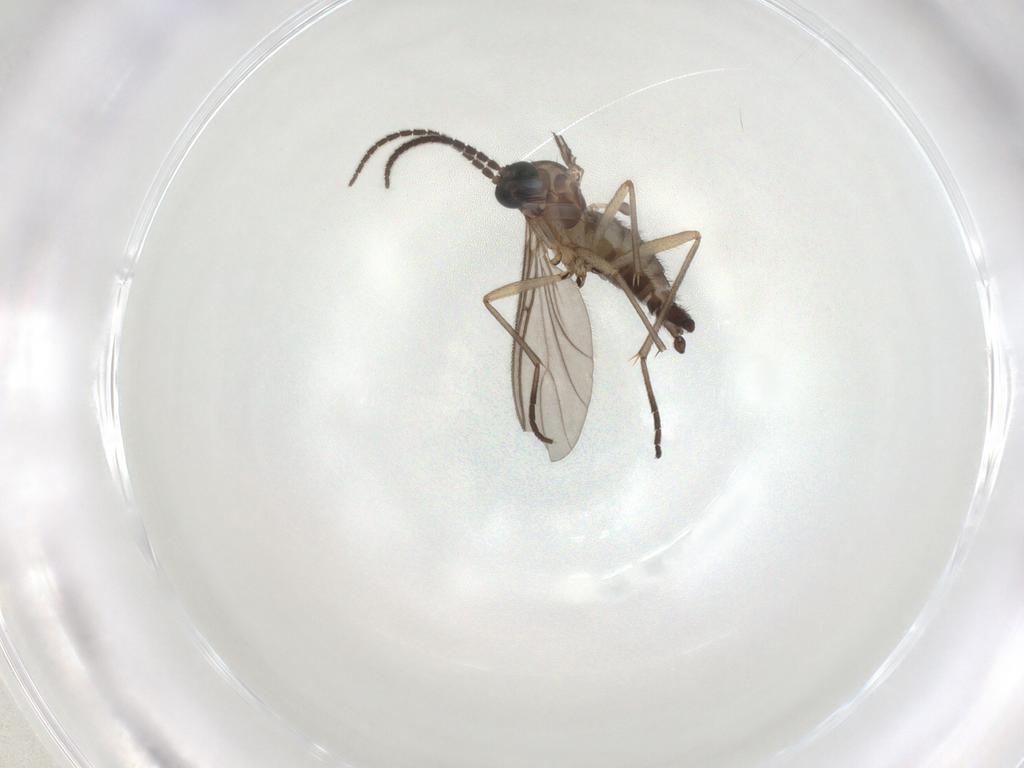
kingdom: Animalia
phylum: Arthropoda
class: Insecta
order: Diptera
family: Sciaridae
